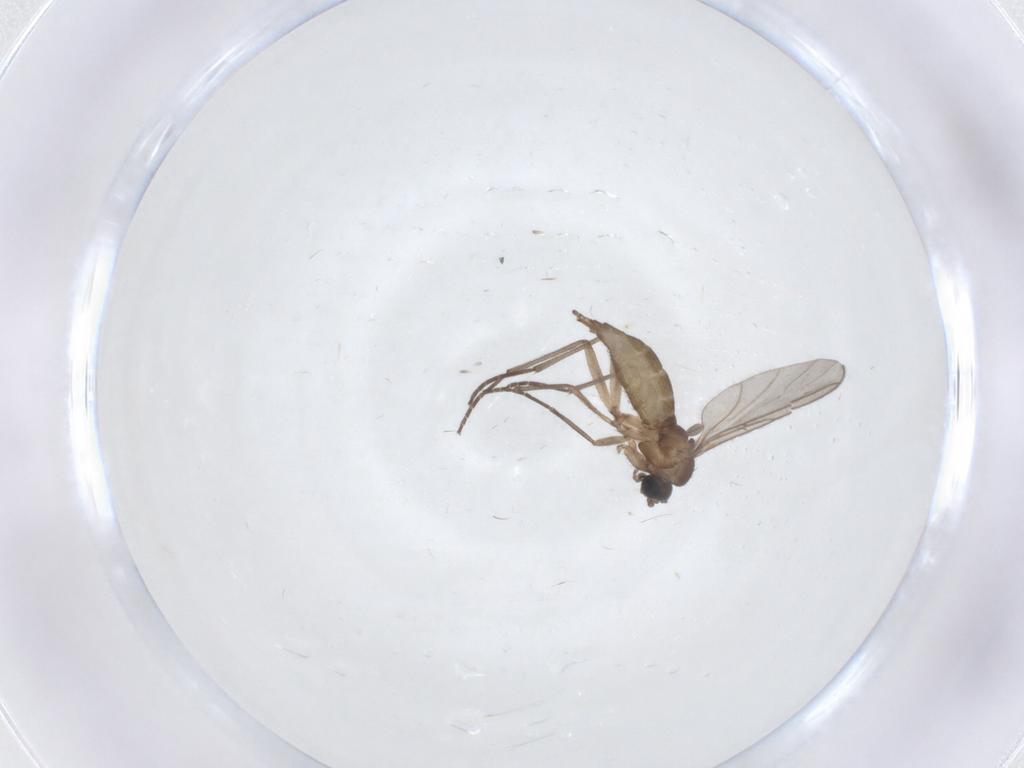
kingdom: Animalia
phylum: Arthropoda
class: Insecta
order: Diptera
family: Sciaridae
